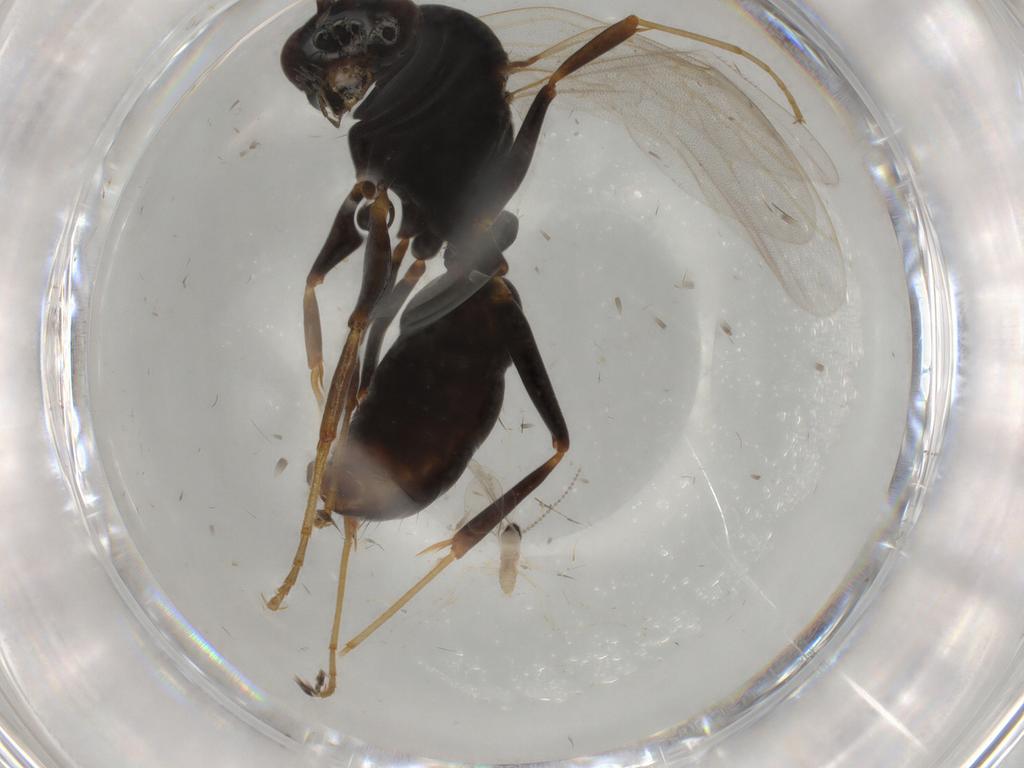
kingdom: Animalia
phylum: Arthropoda
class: Insecta
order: Hymenoptera
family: Formicidae
